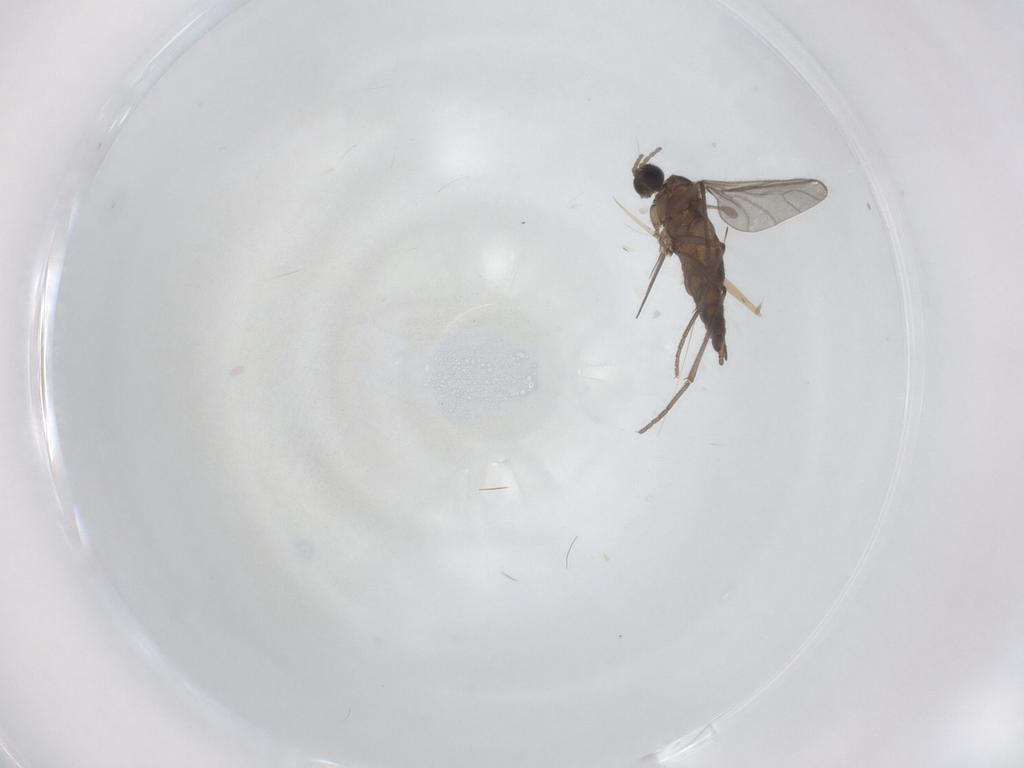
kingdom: Animalia
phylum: Arthropoda
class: Insecta
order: Diptera
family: Sciaridae
